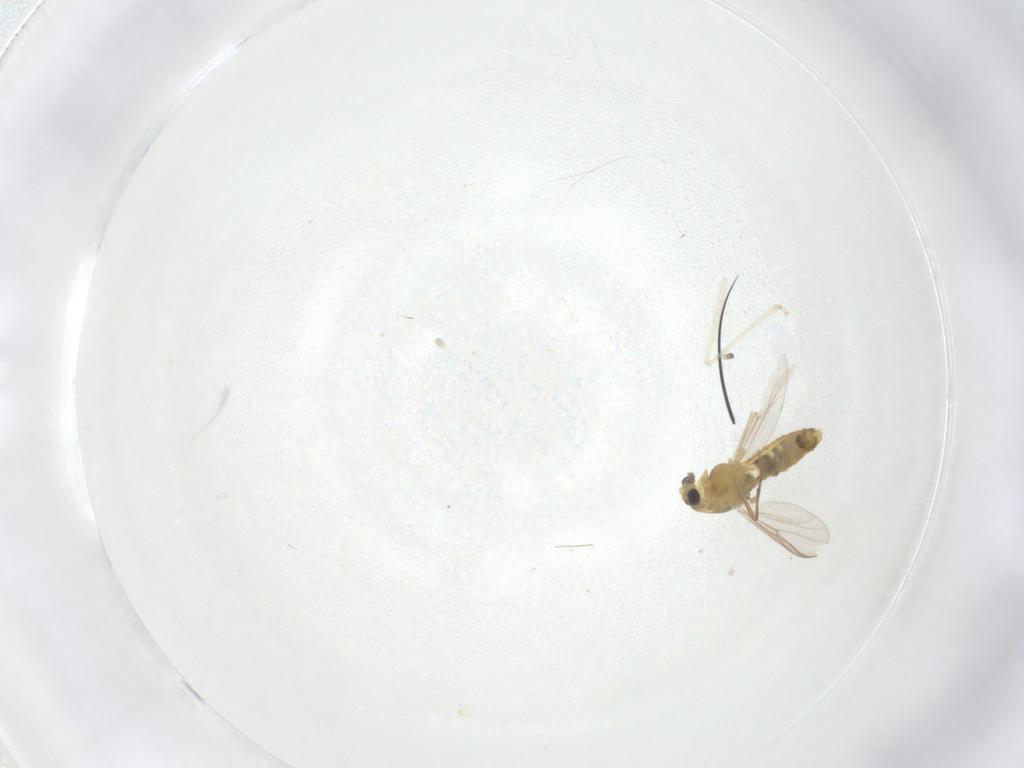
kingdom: Animalia
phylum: Arthropoda
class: Insecta
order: Diptera
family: Chironomidae
